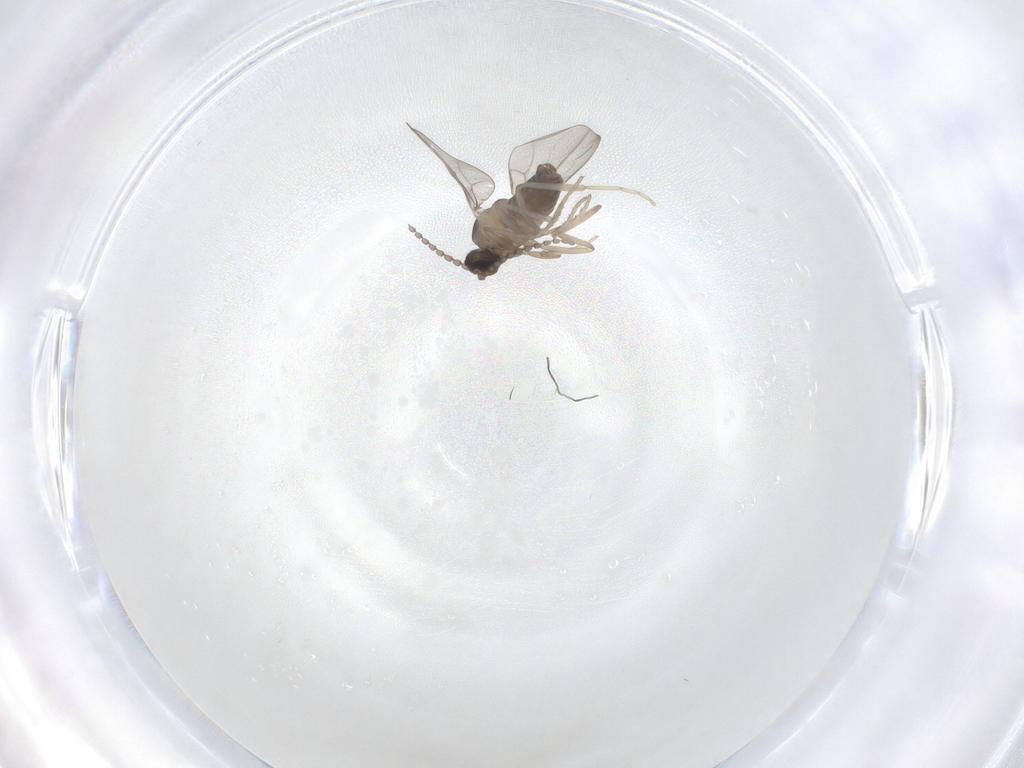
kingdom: Animalia
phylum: Arthropoda
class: Insecta
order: Diptera
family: Cecidomyiidae
